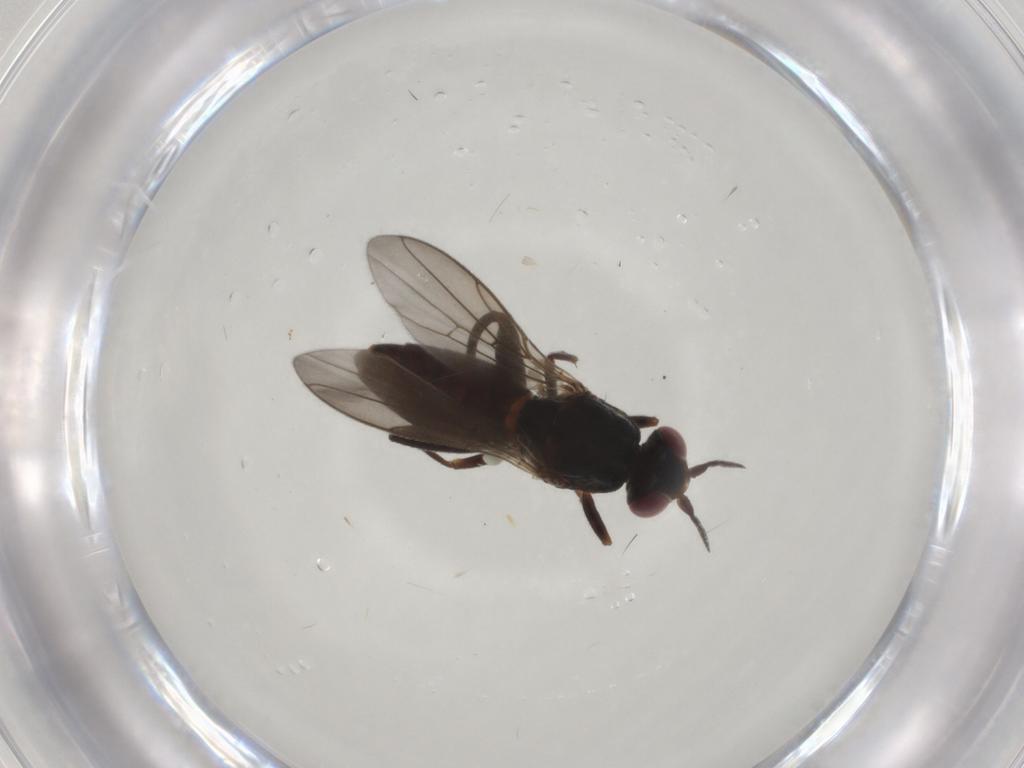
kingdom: Animalia
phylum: Arthropoda
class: Insecta
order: Diptera
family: Chloropidae
